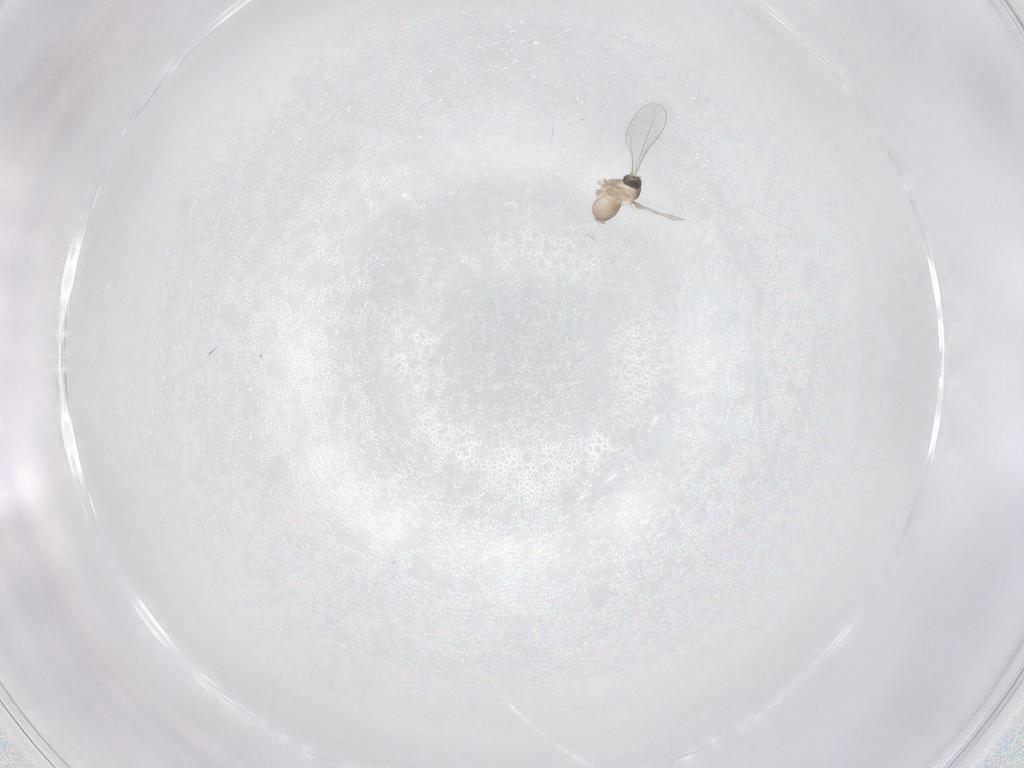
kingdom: Animalia
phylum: Arthropoda
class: Insecta
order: Diptera
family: Cecidomyiidae
